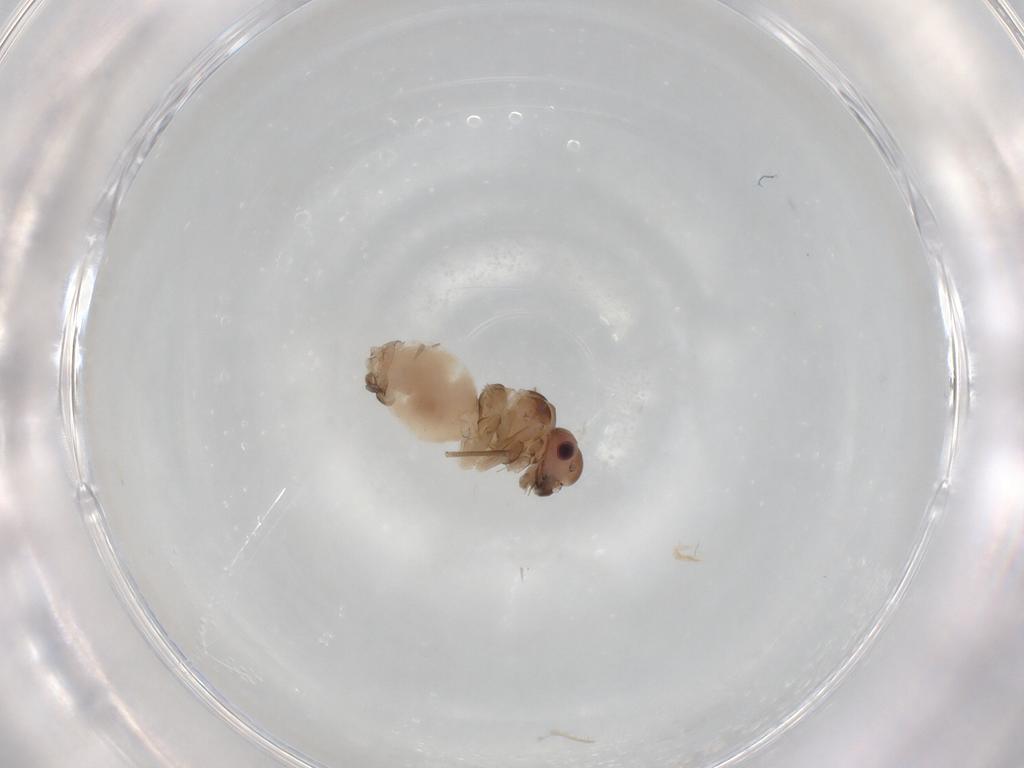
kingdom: Animalia
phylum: Arthropoda
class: Insecta
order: Psocodea
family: Peripsocidae
